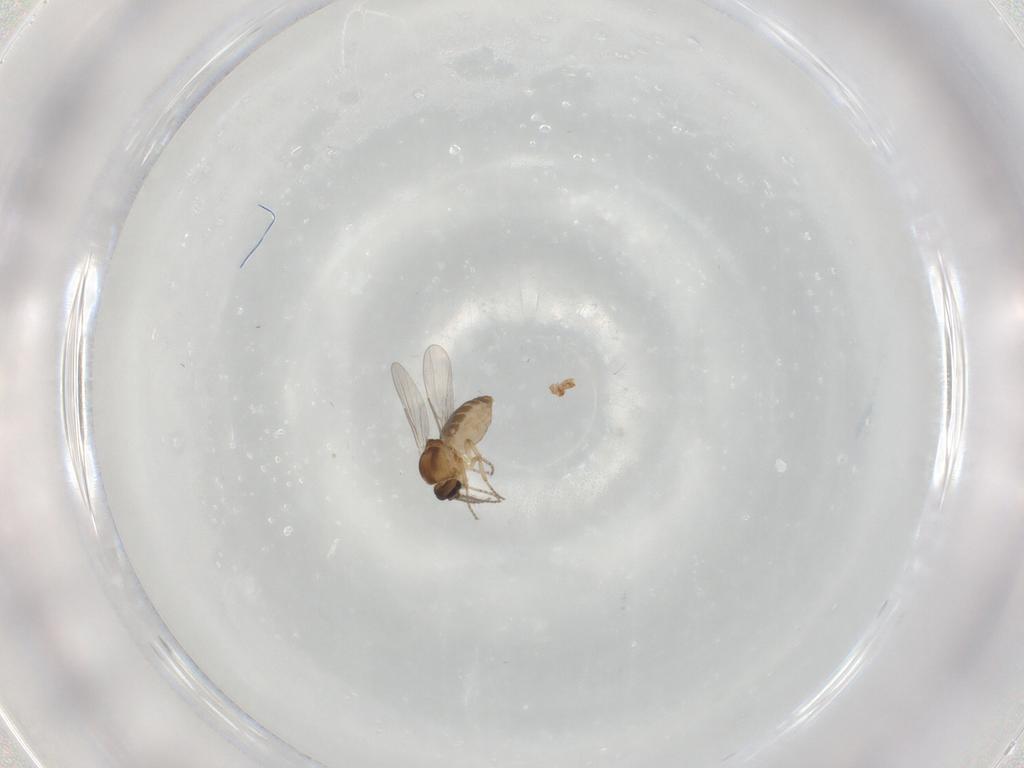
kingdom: Animalia
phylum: Arthropoda
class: Insecta
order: Diptera
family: Ceratopogonidae
